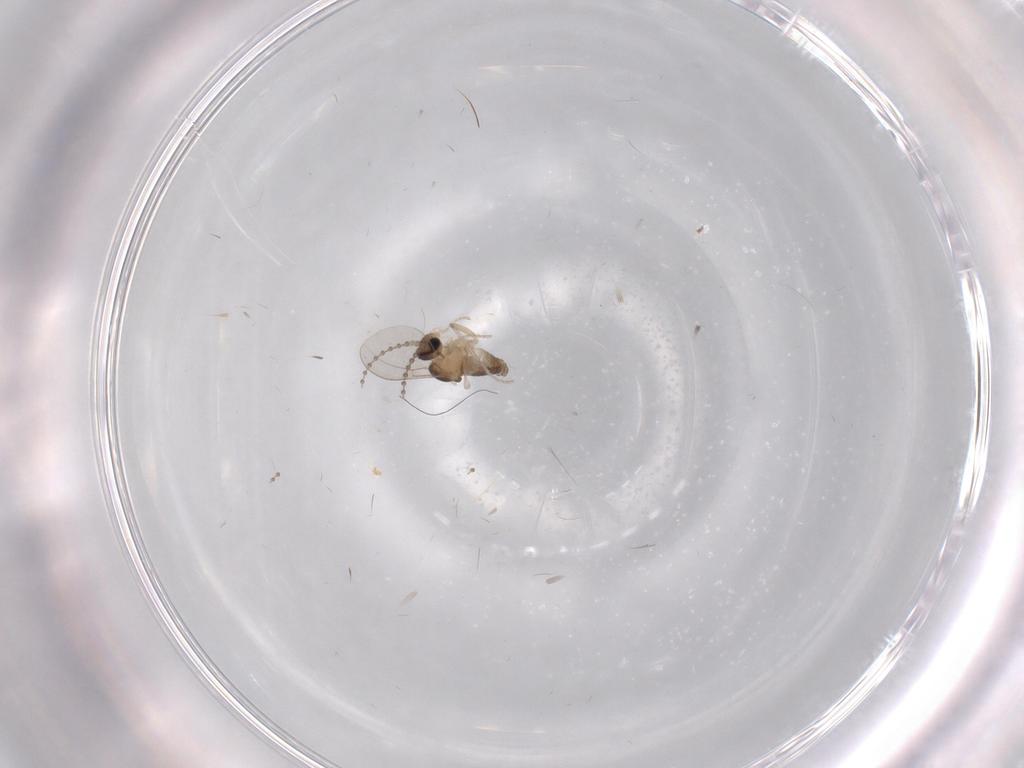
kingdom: Animalia
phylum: Arthropoda
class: Insecta
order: Diptera
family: Cecidomyiidae
